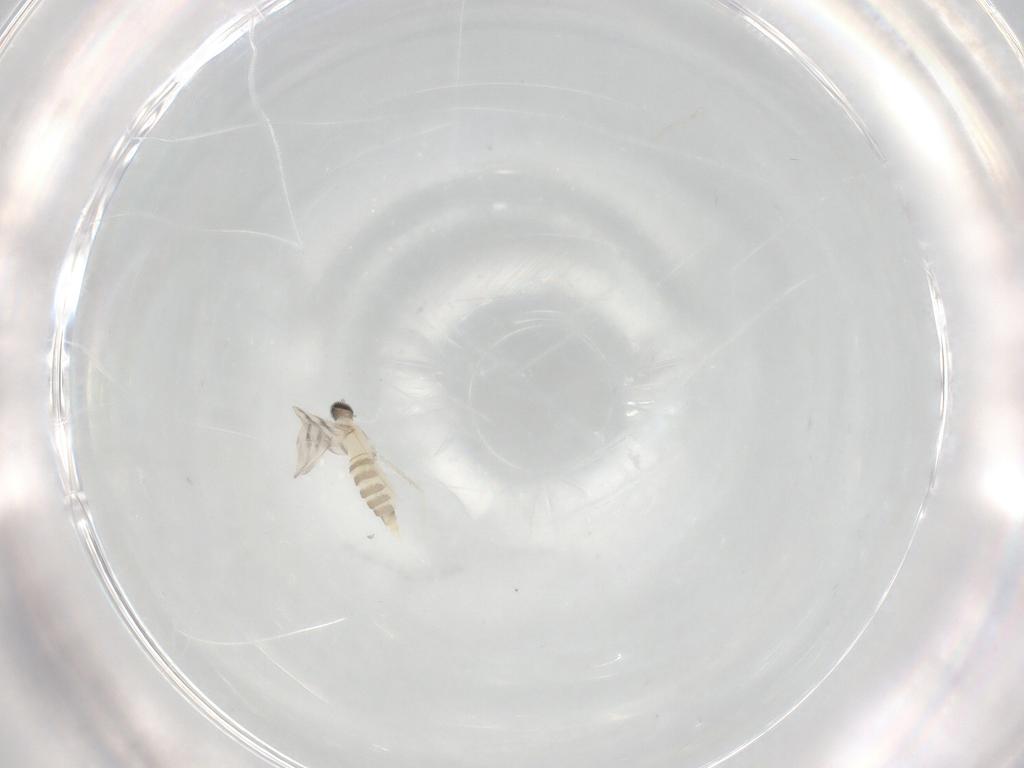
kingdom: Animalia
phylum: Arthropoda
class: Insecta
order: Diptera
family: Cecidomyiidae
